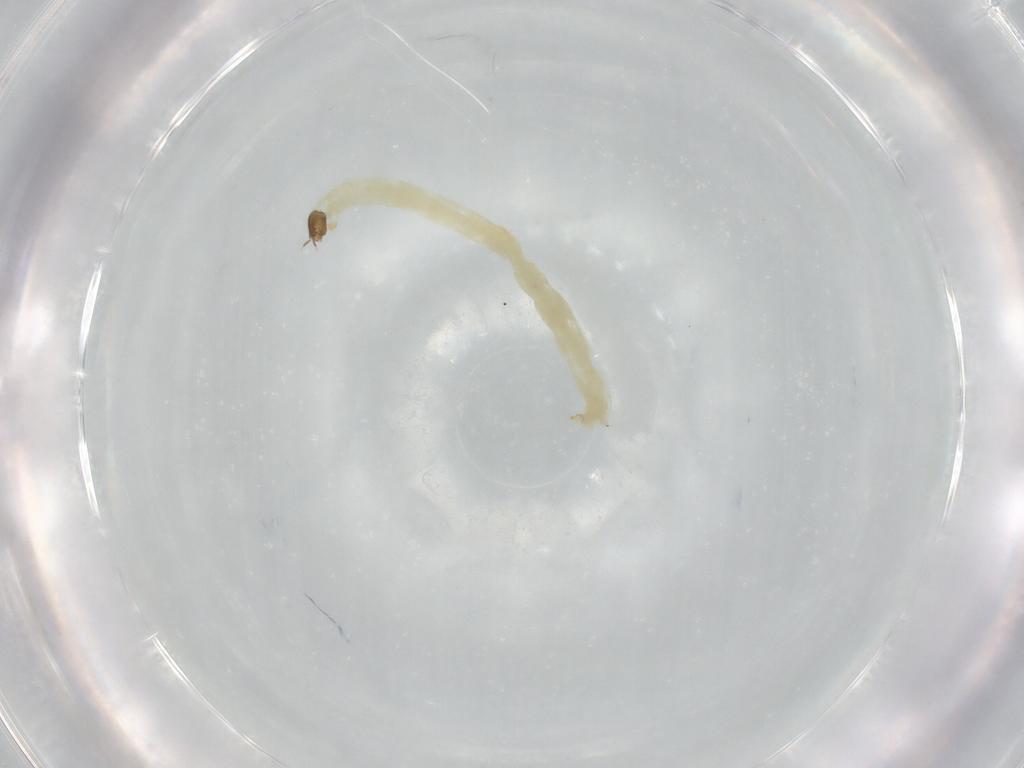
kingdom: Animalia
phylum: Arthropoda
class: Insecta
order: Diptera
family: Chironomidae
